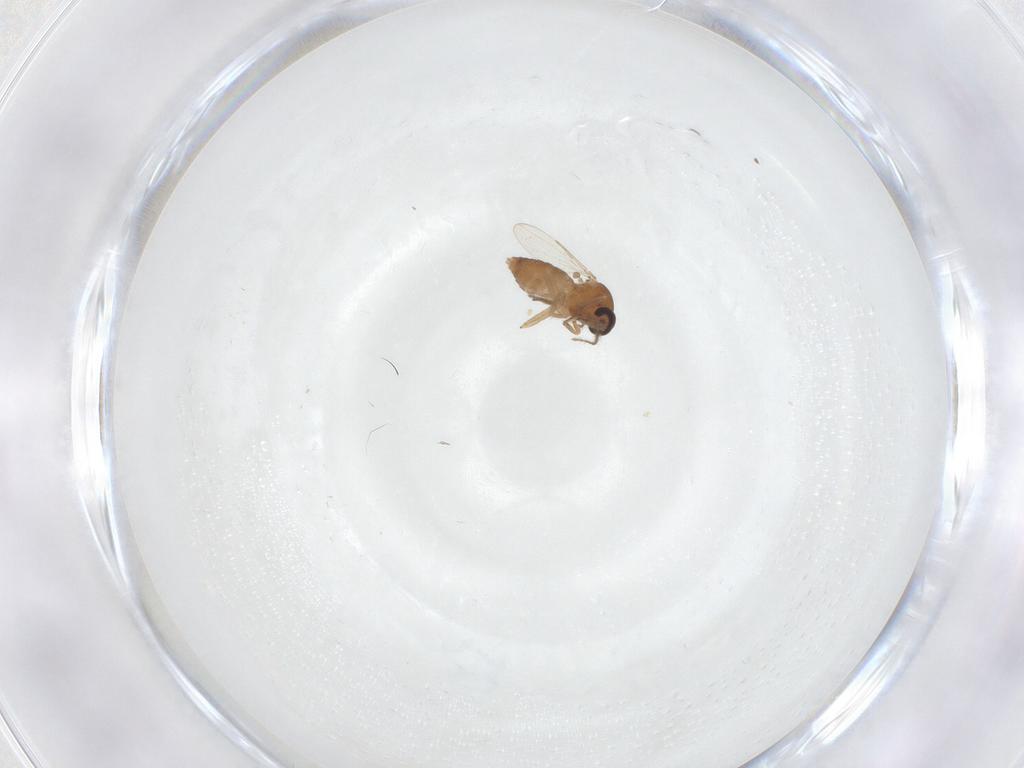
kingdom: Animalia
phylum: Arthropoda
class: Insecta
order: Diptera
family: Ceratopogonidae
